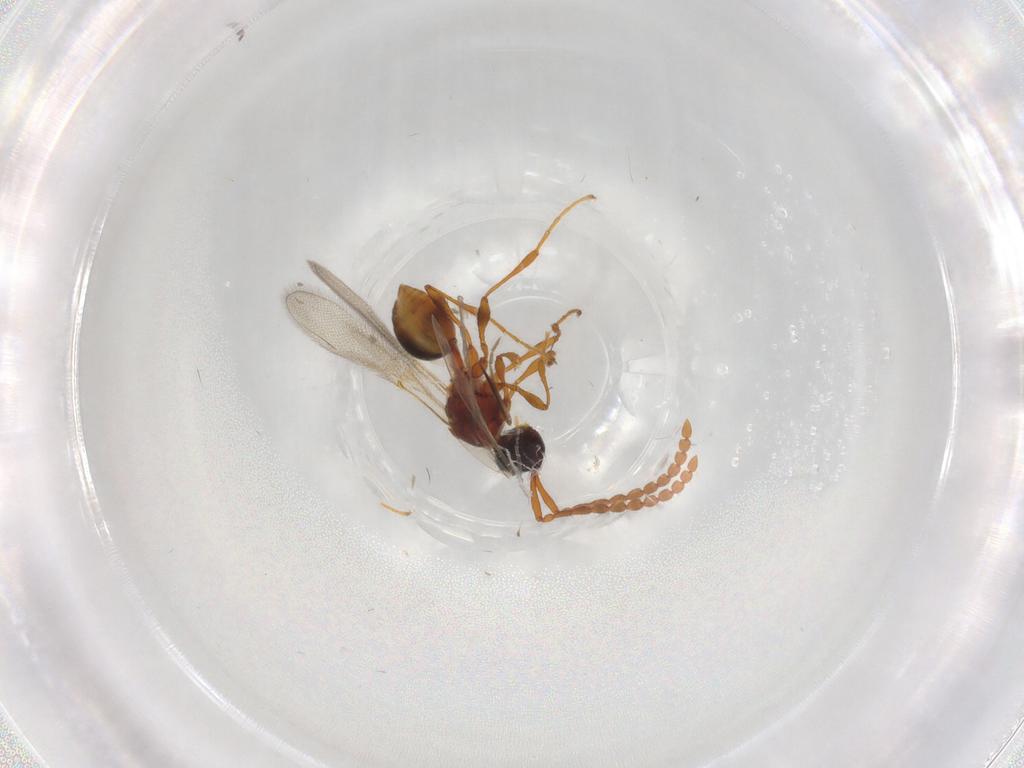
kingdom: Animalia
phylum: Arthropoda
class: Insecta
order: Hymenoptera
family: Diapriidae
